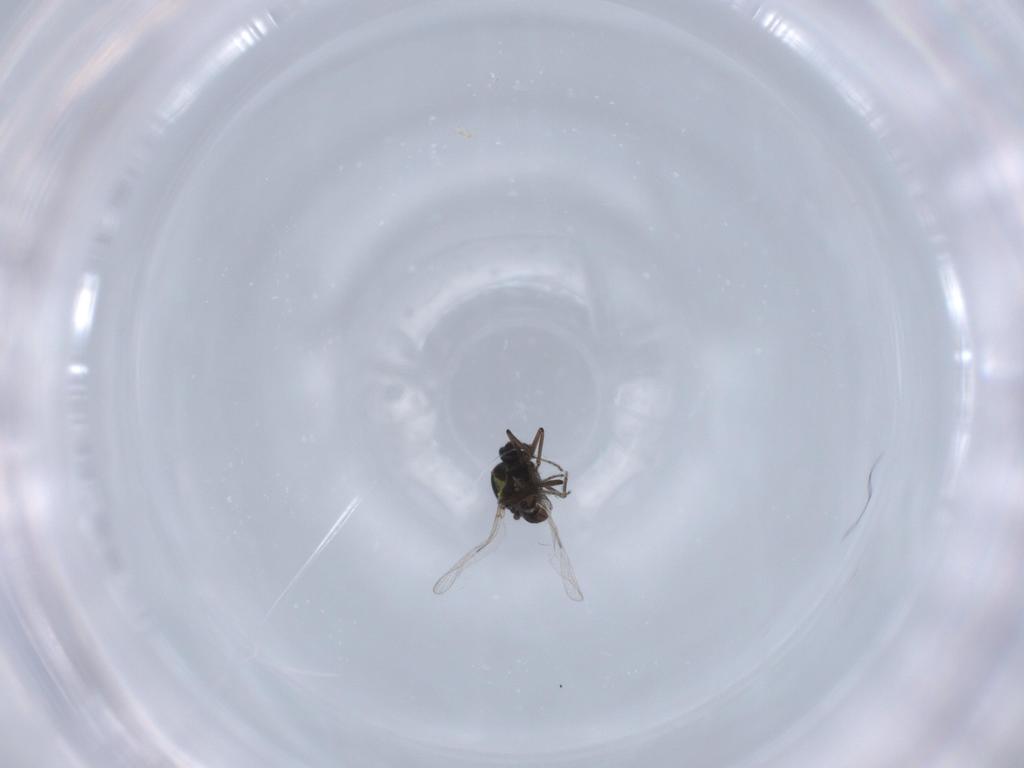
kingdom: Animalia
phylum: Arthropoda
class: Insecta
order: Diptera
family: Ceratopogonidae
